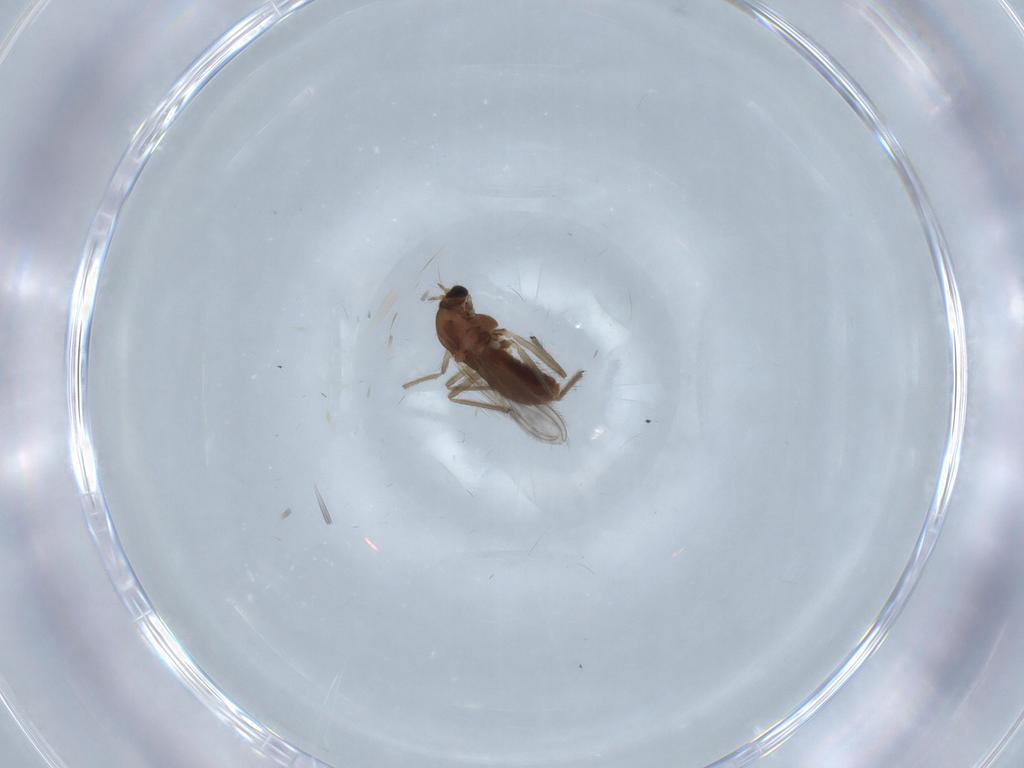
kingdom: Animalia
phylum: Arthropoda
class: Insecta
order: Diptera
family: Chironomidae
